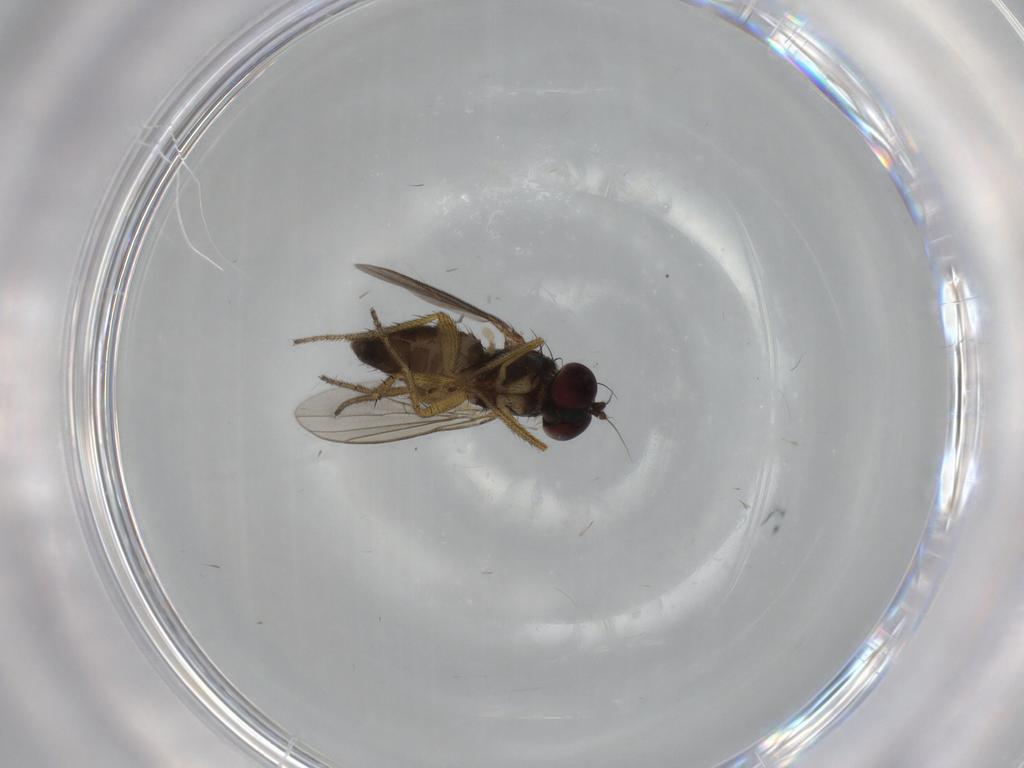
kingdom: Animalia
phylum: Arthropoda
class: Insecta
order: Diptera
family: Dolichopodidae
